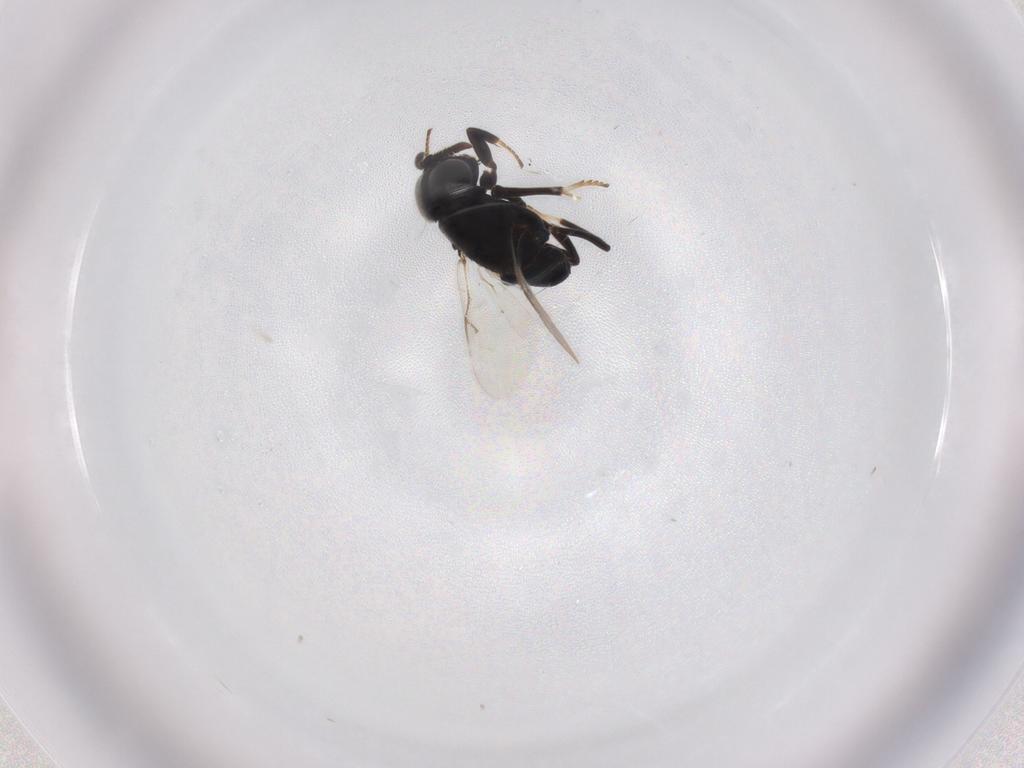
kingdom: Animalia
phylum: Arthropoda
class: Insecta
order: Hymenoptera
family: Encyrtidae
